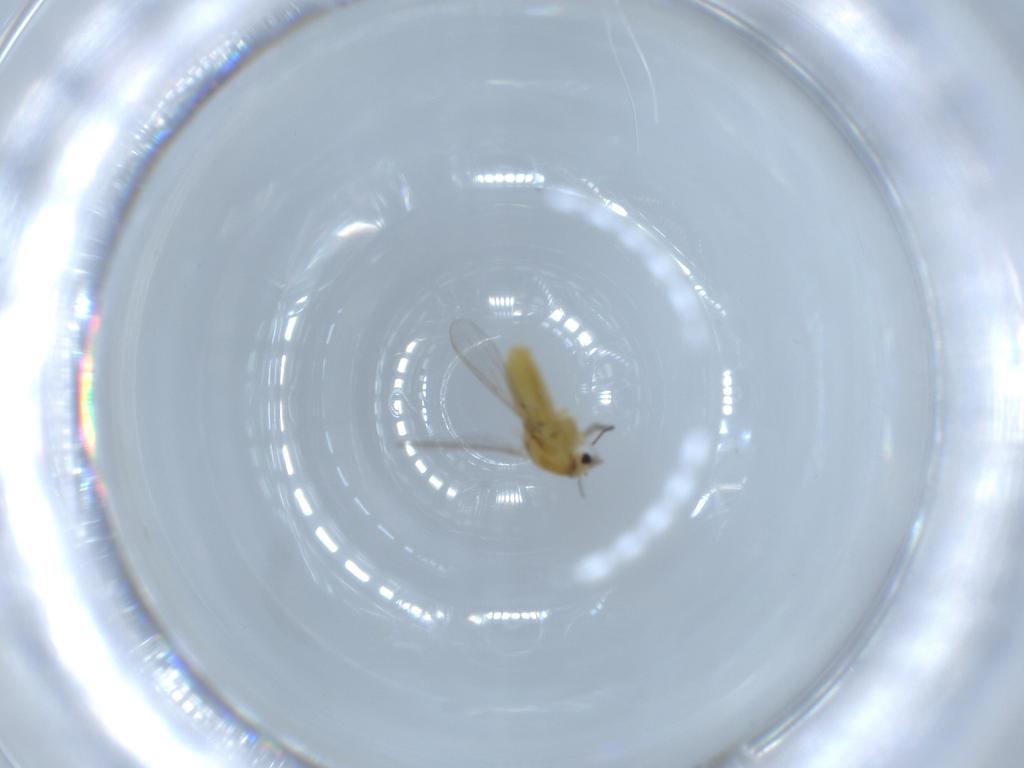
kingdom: Animalia
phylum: Arthropoda
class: Insecta
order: Diptera
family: Chironomidae
